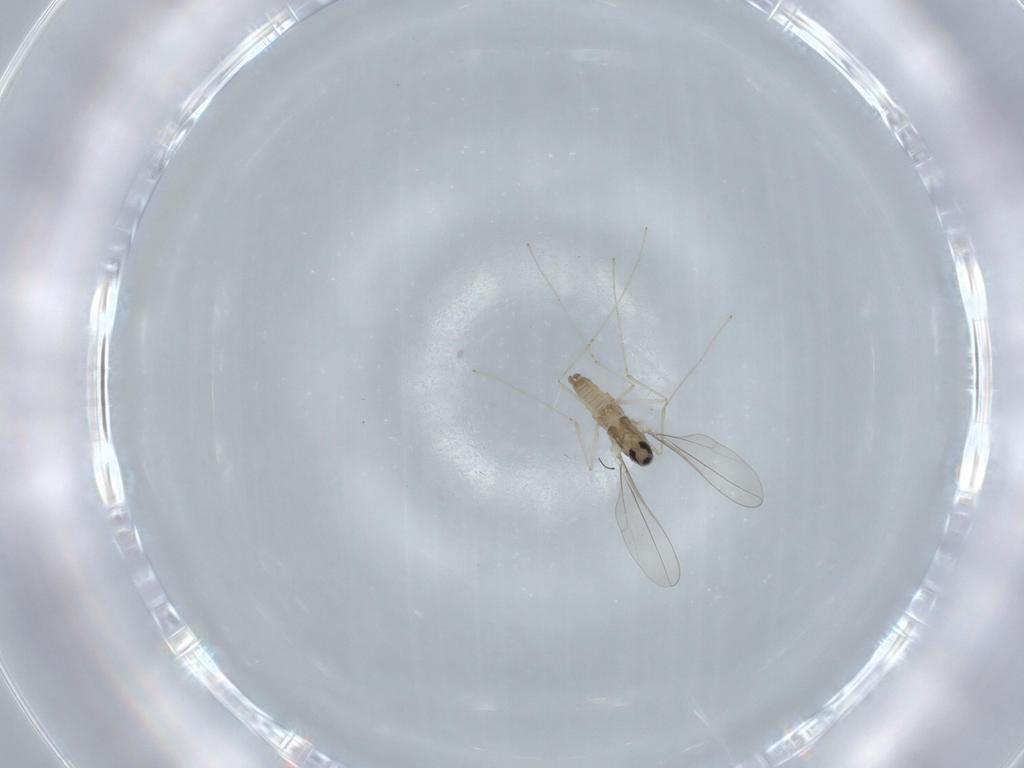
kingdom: Animalia
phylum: Arthropoda
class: Insecta
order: Diptera
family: Cecidomyiidae
